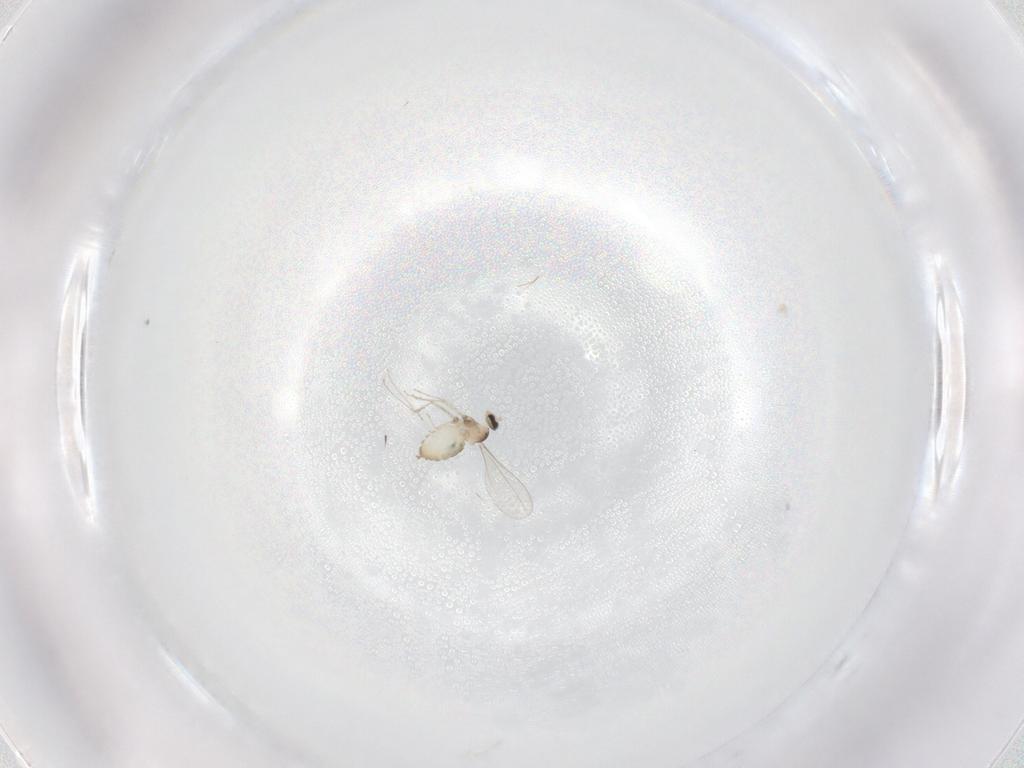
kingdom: Animalia
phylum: Arthropoda
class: Insecta
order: Diptera
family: Cecidomyiidae
